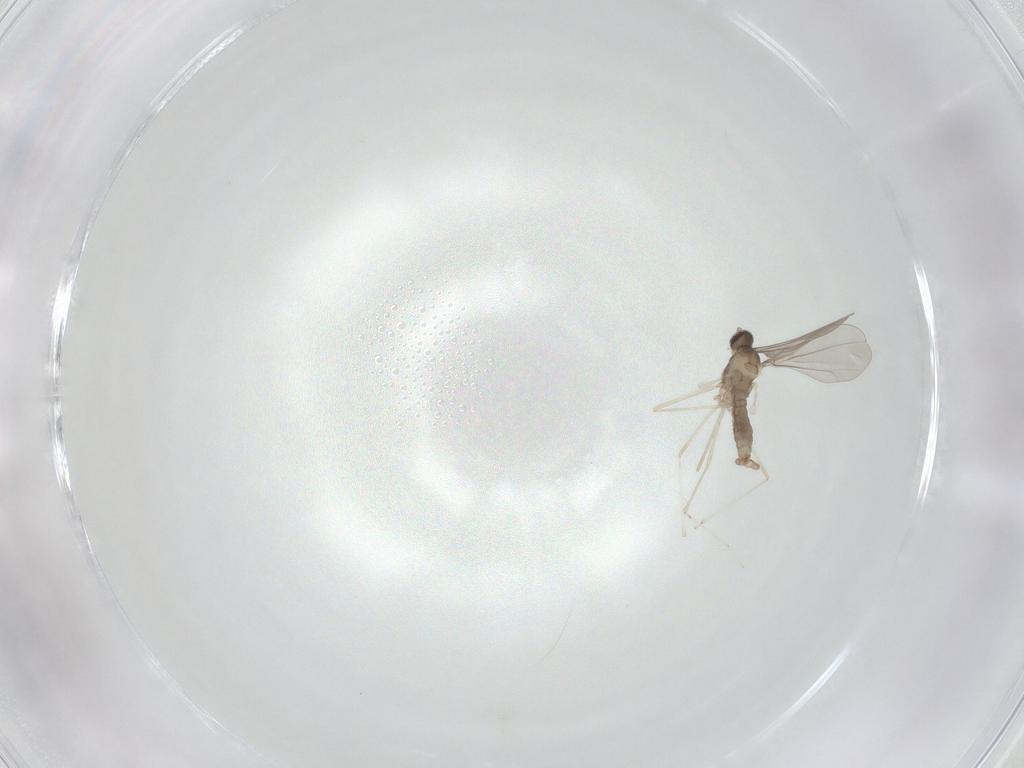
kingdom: Animalia
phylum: Arthropoda
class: Insecta
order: Diptera
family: Cecidomyiidae
